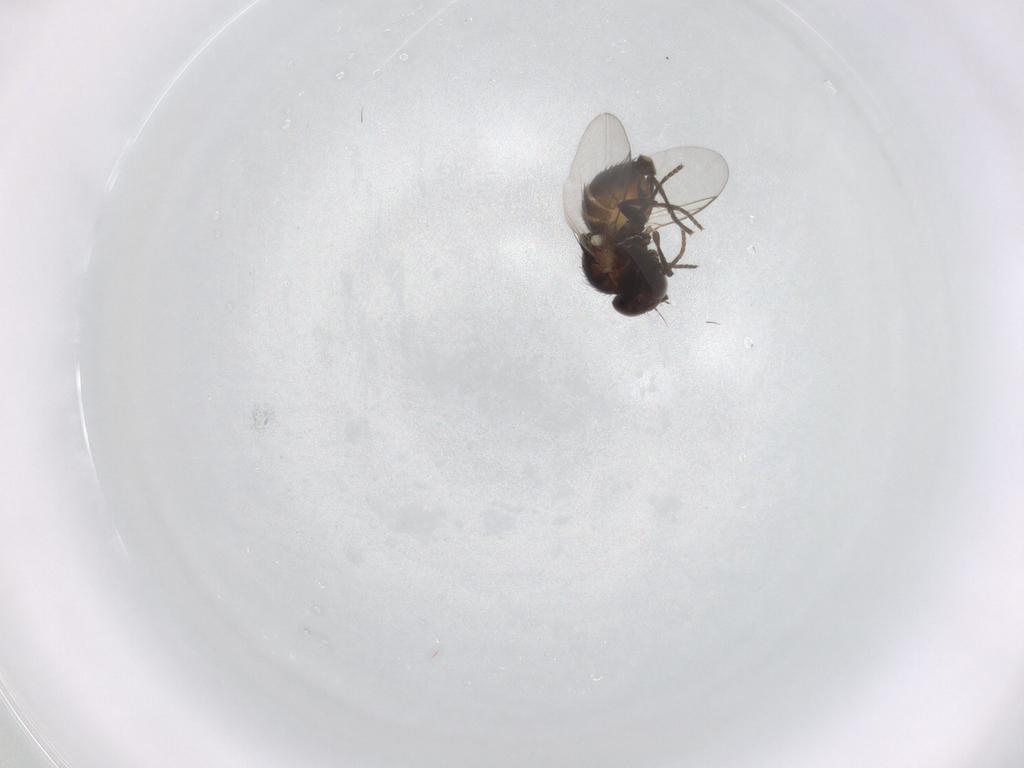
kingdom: Animalia
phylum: Arthropoda
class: Insecta
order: Diptera
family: Agromyzidae
